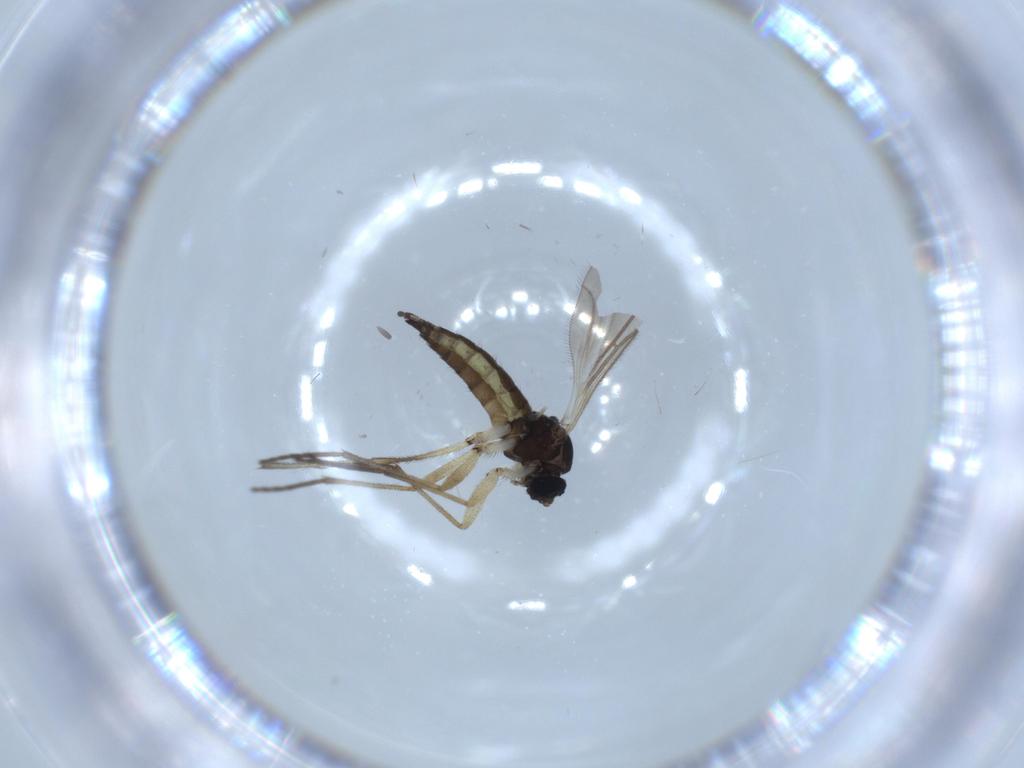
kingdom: Animalia
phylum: Arthropoda
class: Insecta
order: Diptera
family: Sciaridae
